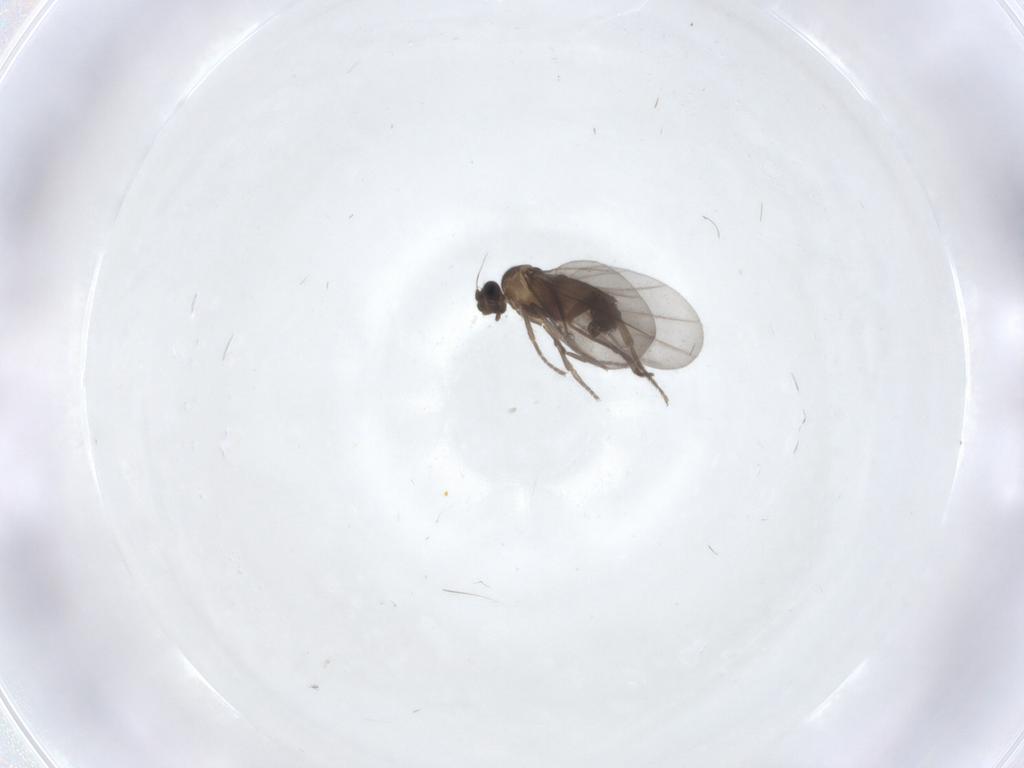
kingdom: Animalia
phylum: Arthropoda
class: Insecta
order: Diptera
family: Phoridae
